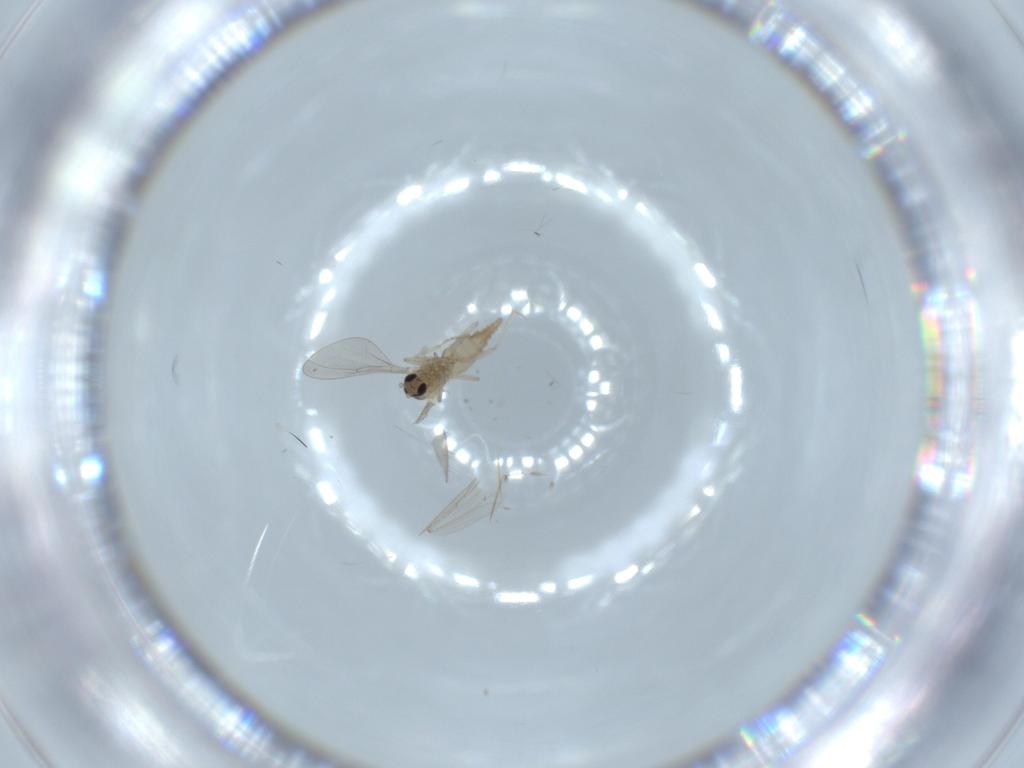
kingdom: Animalia
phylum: Arthropoda
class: Insecta
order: Diptera
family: Cecidomyiidae
